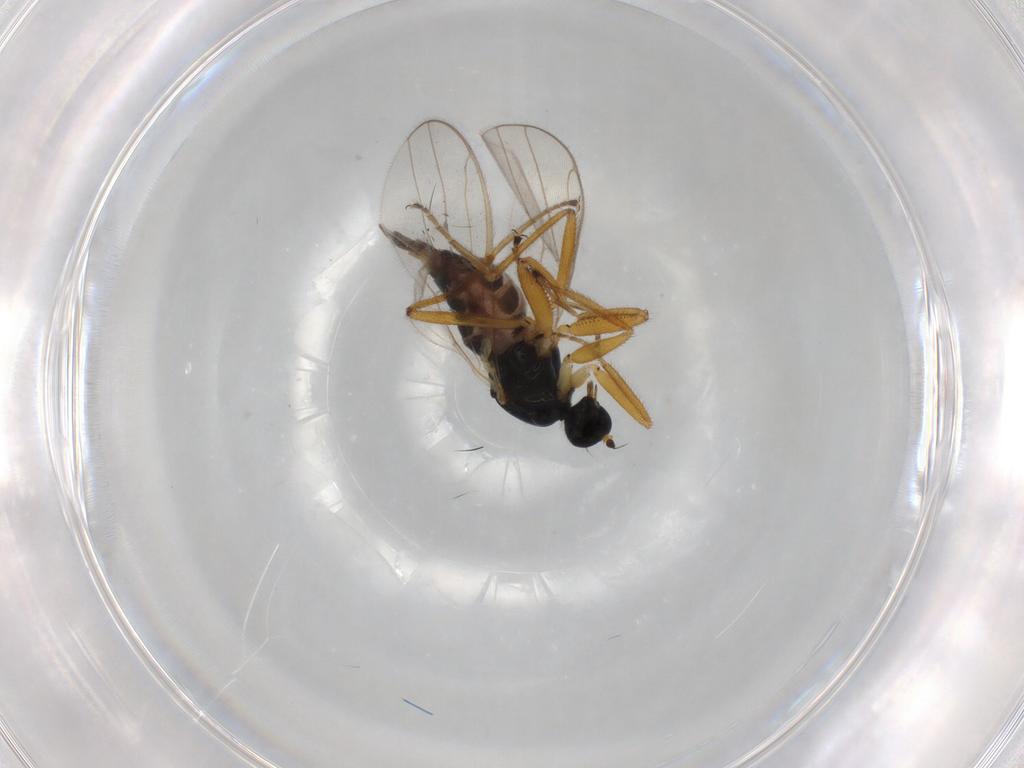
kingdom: Animalia
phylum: Arthropoda
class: Insecta
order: Diptera
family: Hybotidae
